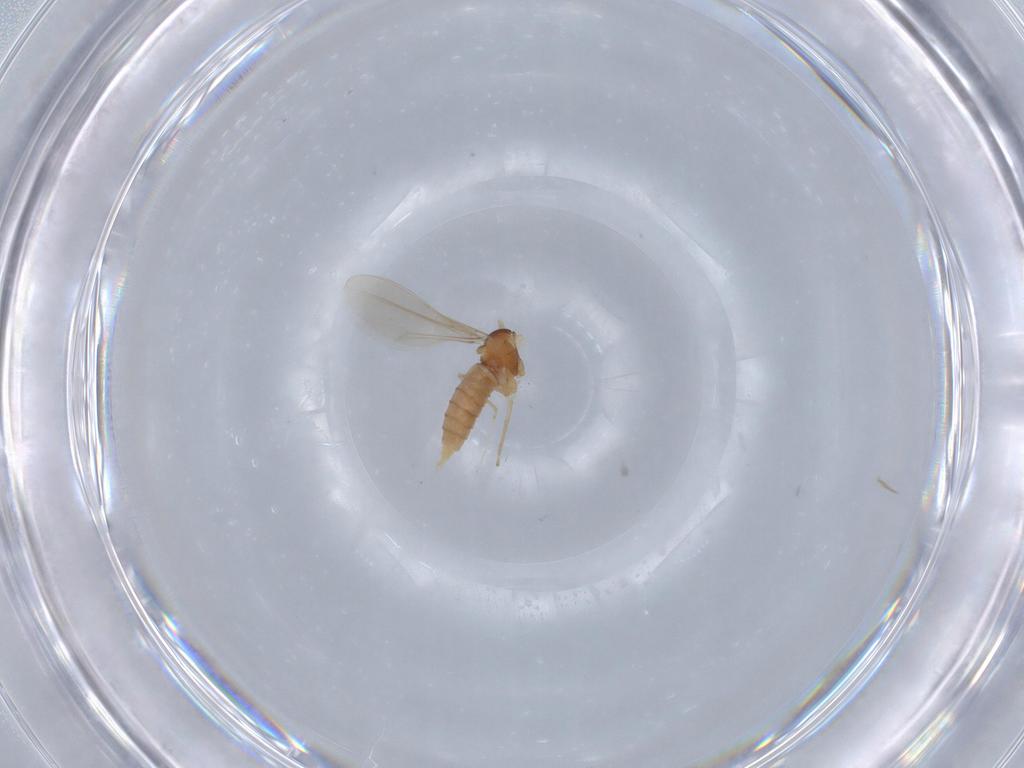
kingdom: Animalia
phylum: Arthropoda
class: Insecta
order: Diptera
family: Cecidomyiidae
